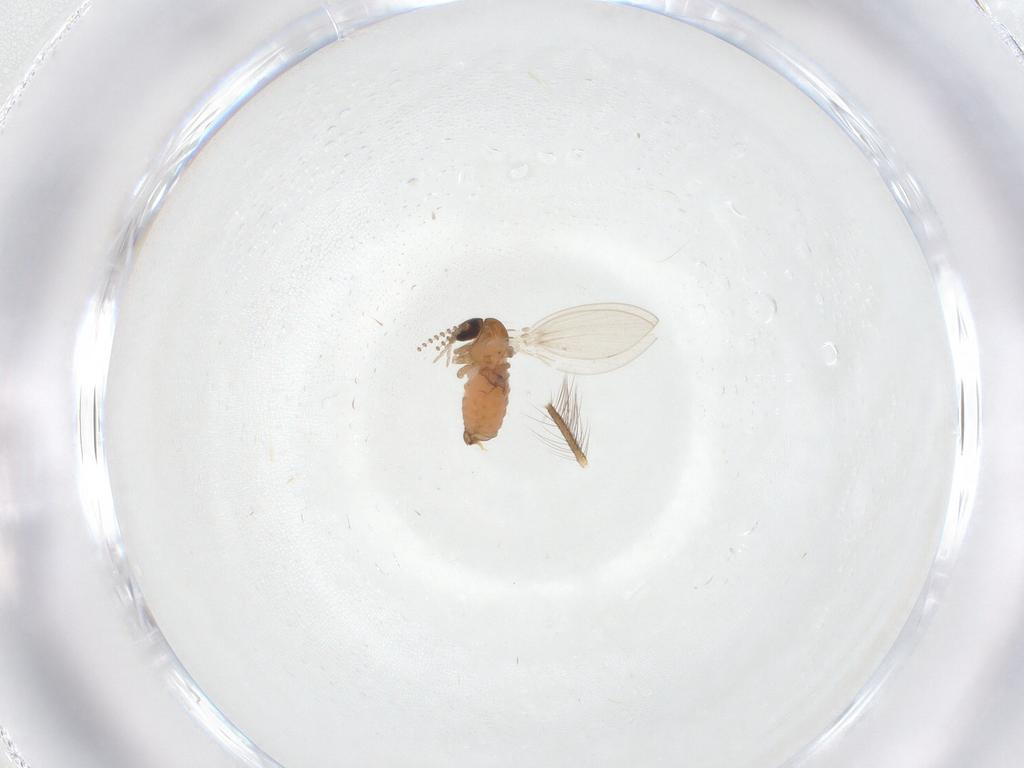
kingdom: Animalia
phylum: Arthropoda
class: Insecta
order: Diptera
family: Culicidae
